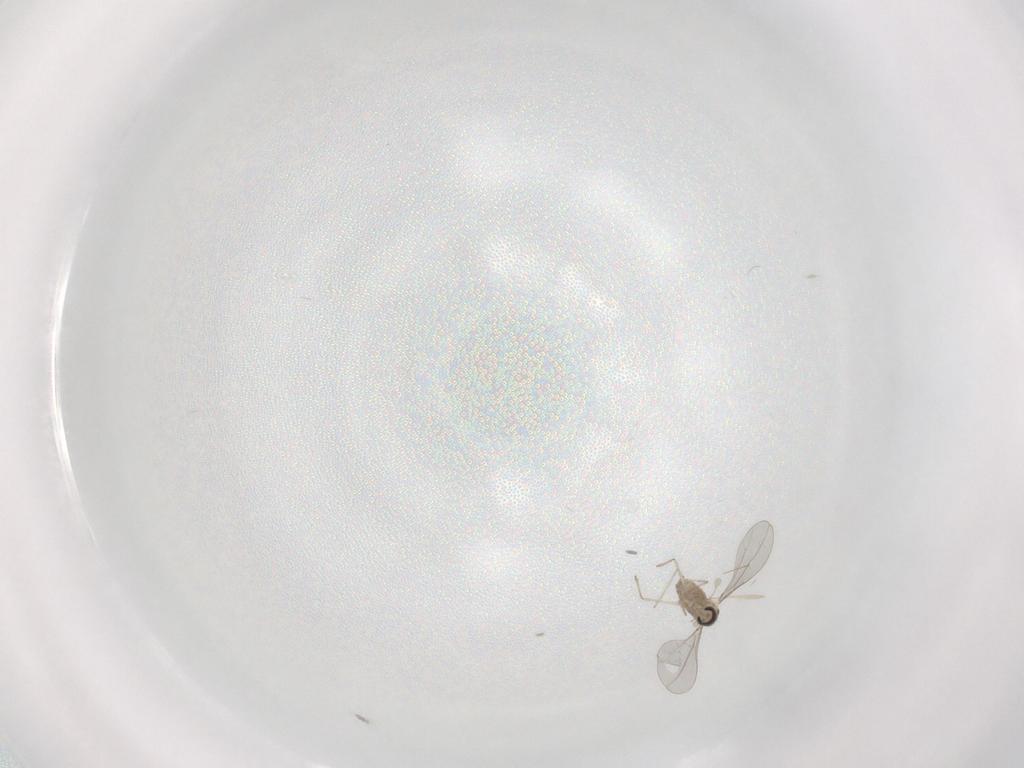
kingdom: Animalia
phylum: Arthropoda
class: Insecta
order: Diptera
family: Cecidomyiidae
